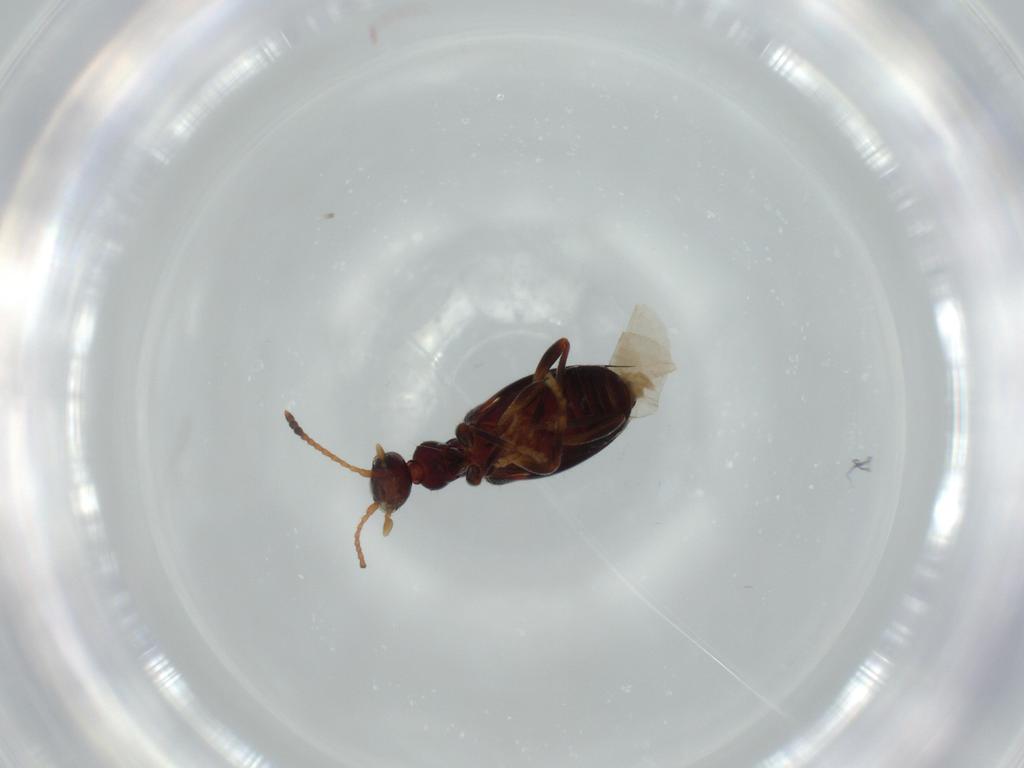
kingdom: Animalia
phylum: Arthropoda
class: Insecta
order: Coleoptera
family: Anthicidae
